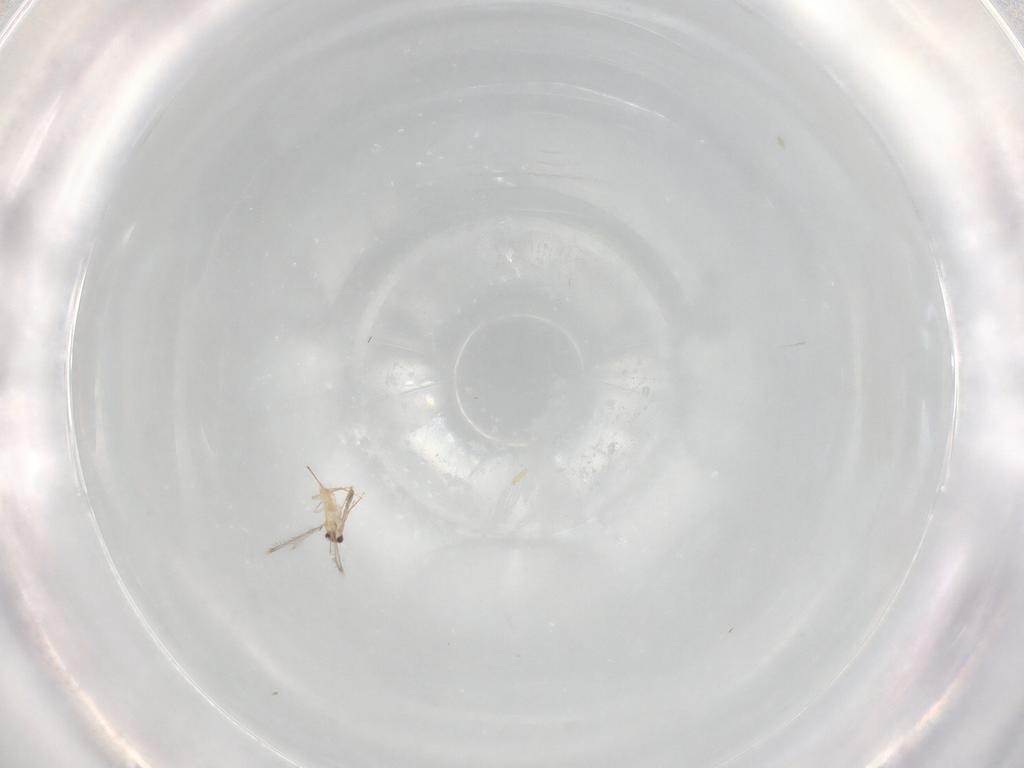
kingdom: Animalia
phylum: Arthropoda
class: Insecta
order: Hymenoptera
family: Mymaridae
